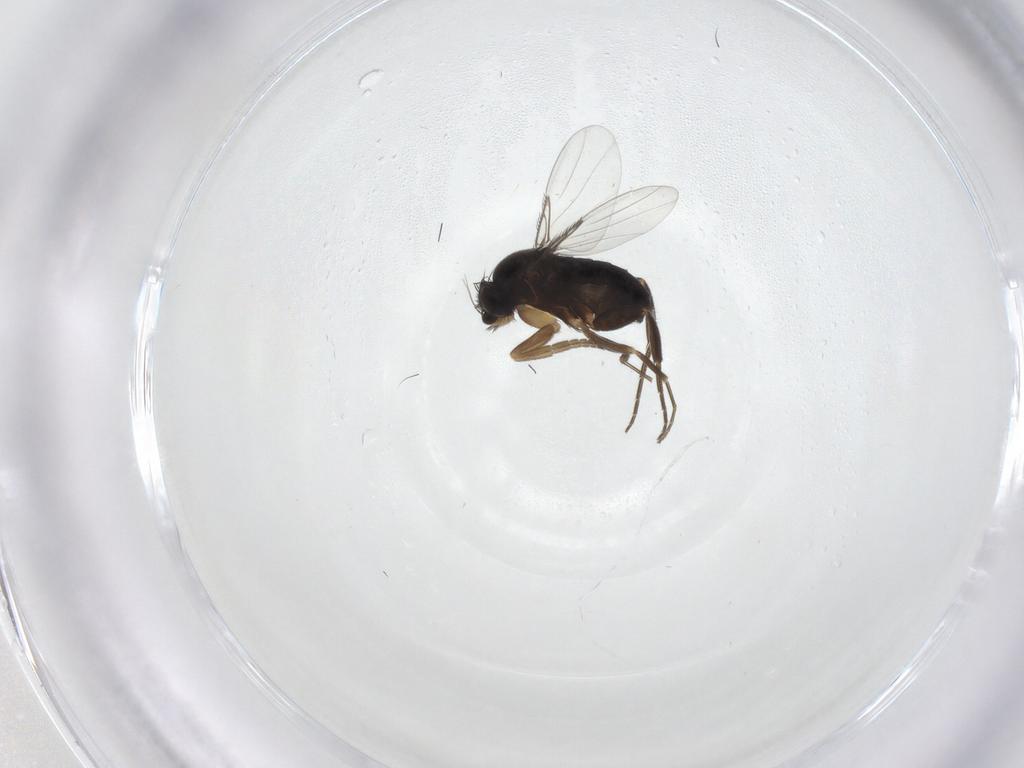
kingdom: Animalia
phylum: Arthropoda
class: Insecta
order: Diptera
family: Phoridae
